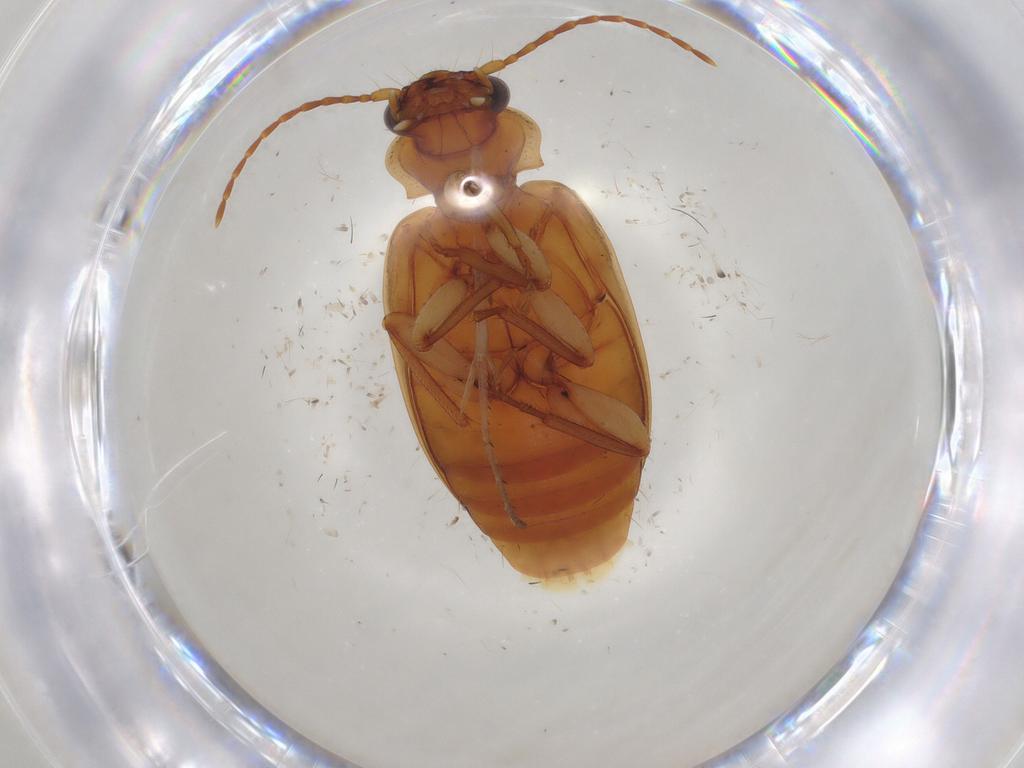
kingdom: Animalia
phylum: Arthropoda
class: Insecta
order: Coleoptera
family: Carabidae
